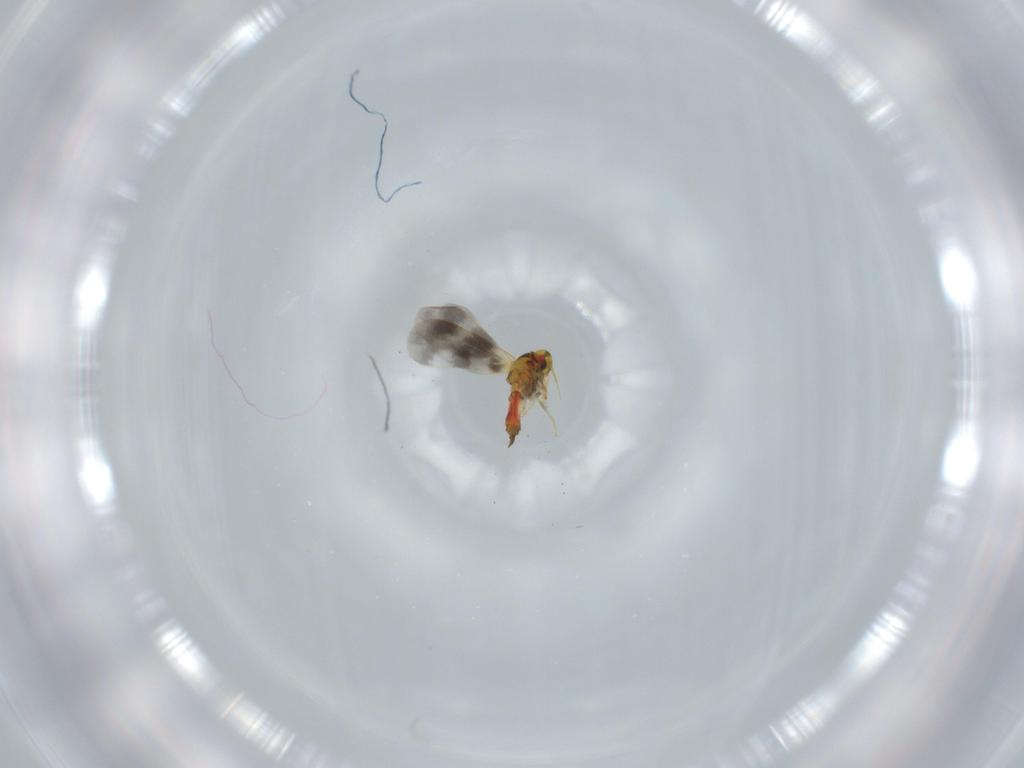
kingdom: Animalia
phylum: Arthropoda
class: Insecta
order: Hemiptera
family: Aleyrodidae
